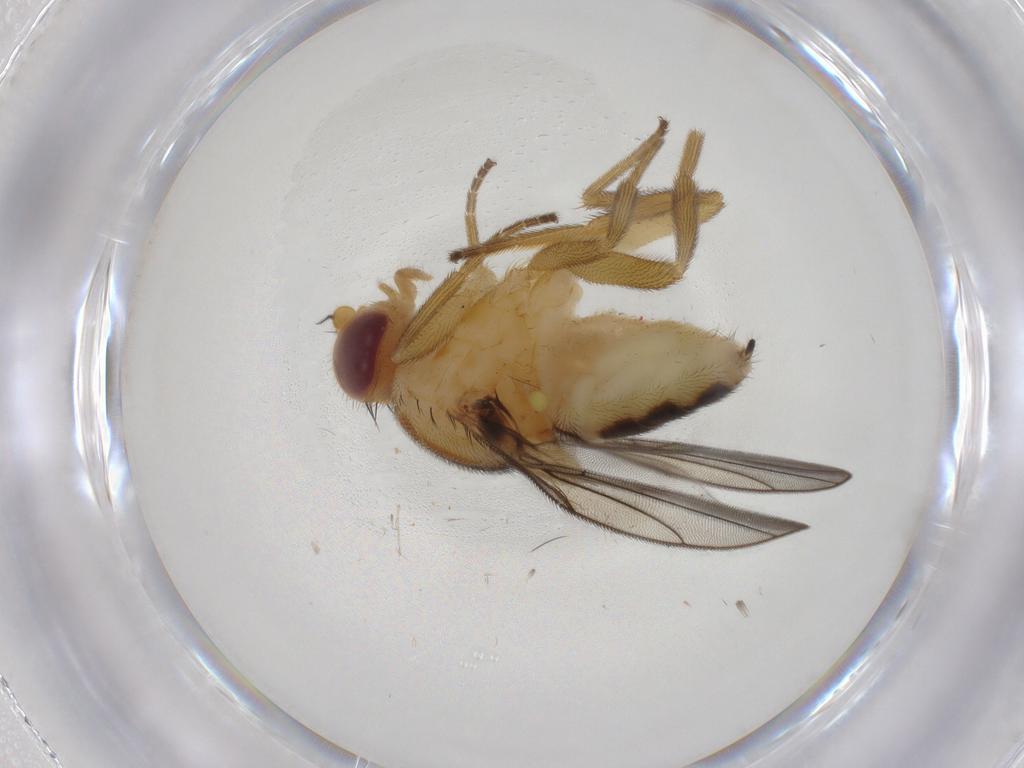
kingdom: Animalia
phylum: Arthropoda
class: Insecta
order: Diptera
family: Chloropidae
